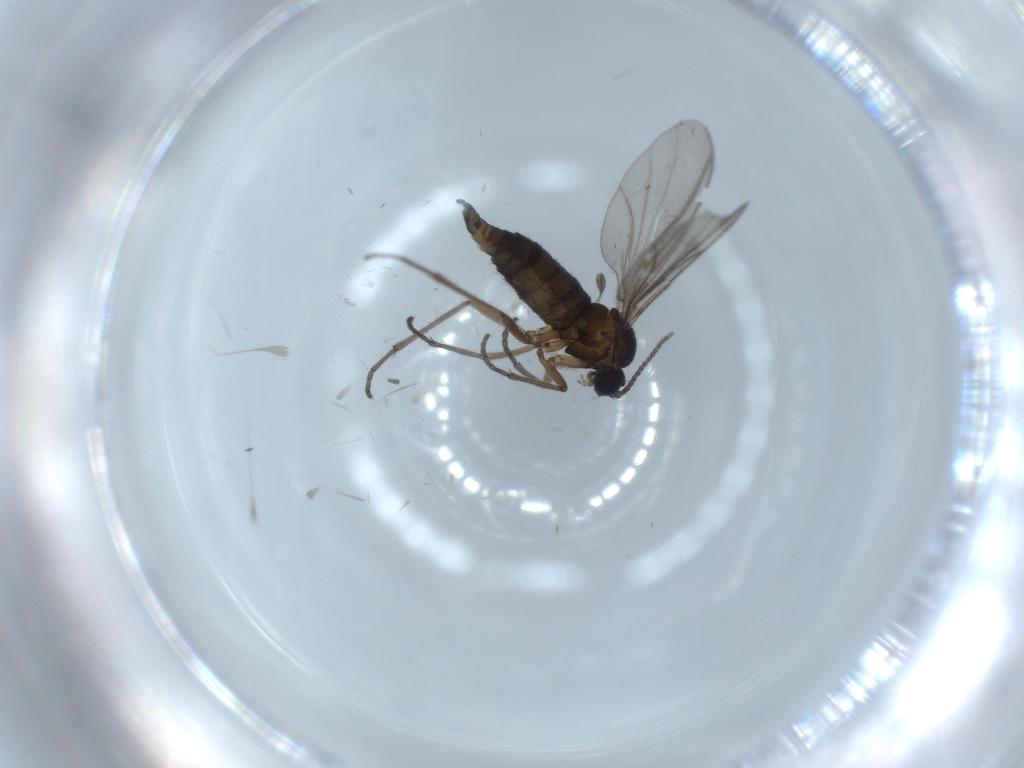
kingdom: Animalia
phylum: Arthropoda
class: Insecta
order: Diptera
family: Sciaridae
